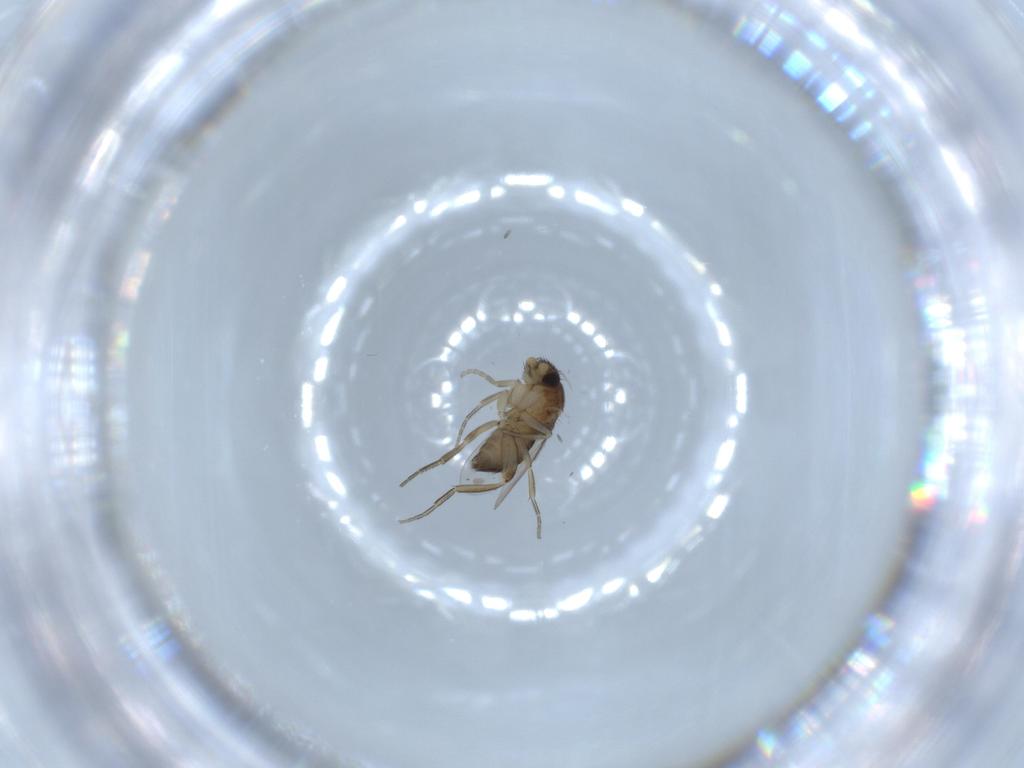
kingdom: Animalia
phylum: Arthropoda
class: Insecta
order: Diptera
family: Phoridae
